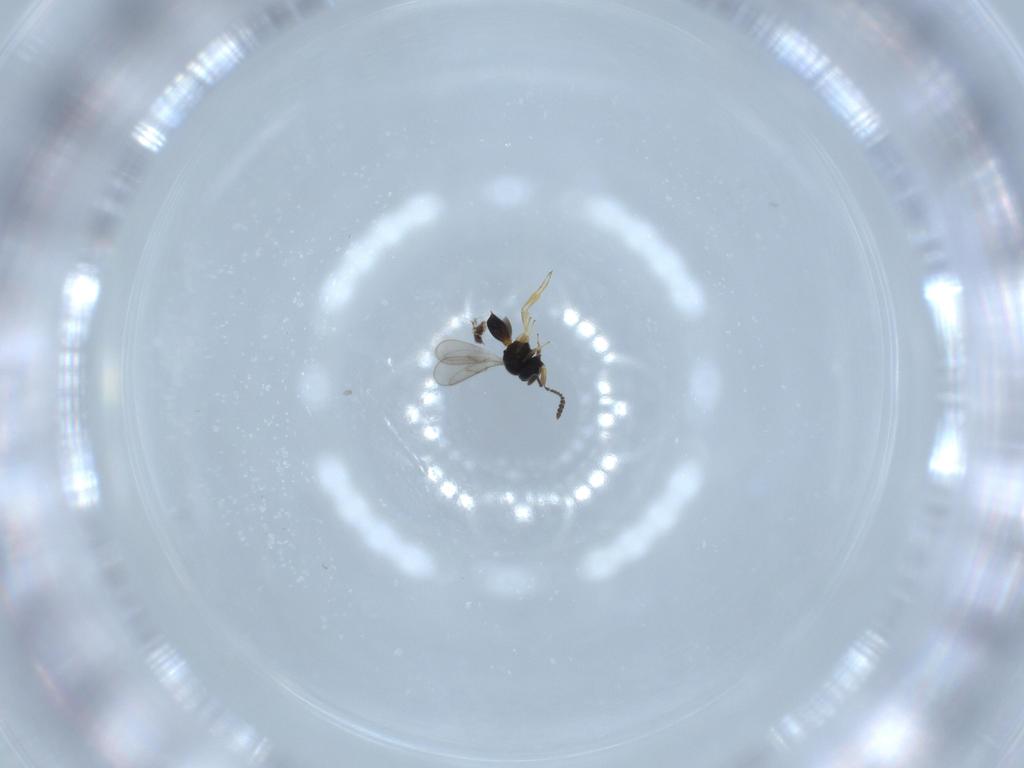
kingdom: Animalia
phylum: Arthropoda
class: Insecta
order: Hymenoptera
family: Scelionidae
